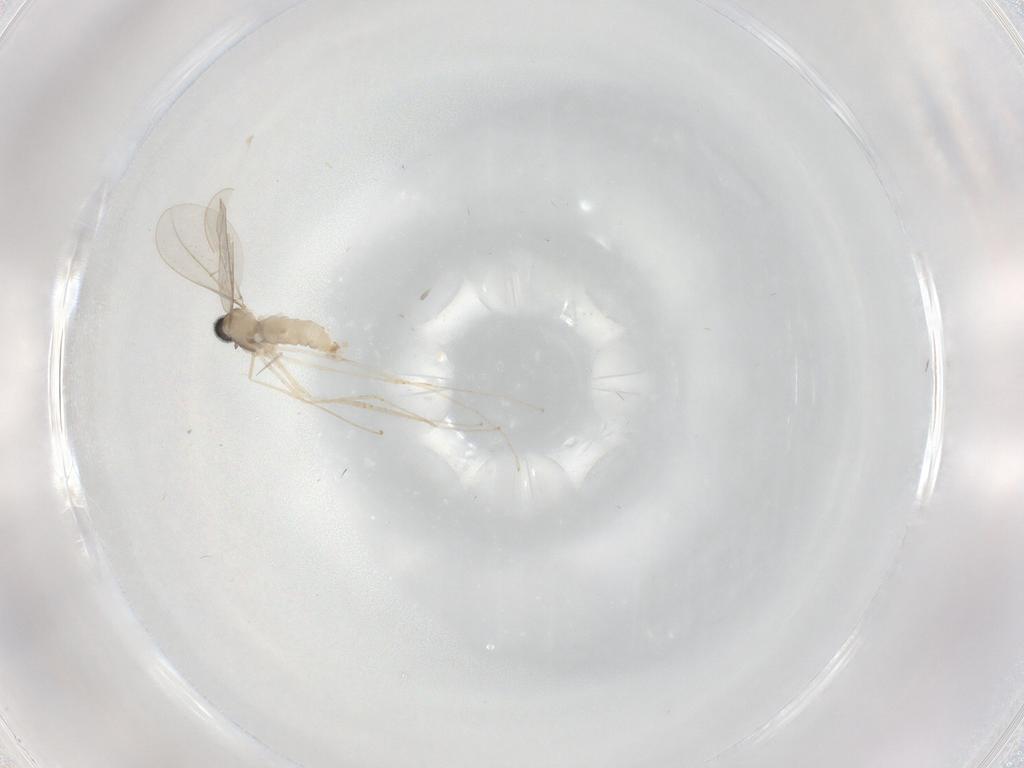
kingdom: Animalia
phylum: Arthropoda
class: Insecta
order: Diptera
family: Cecidomyiidae
